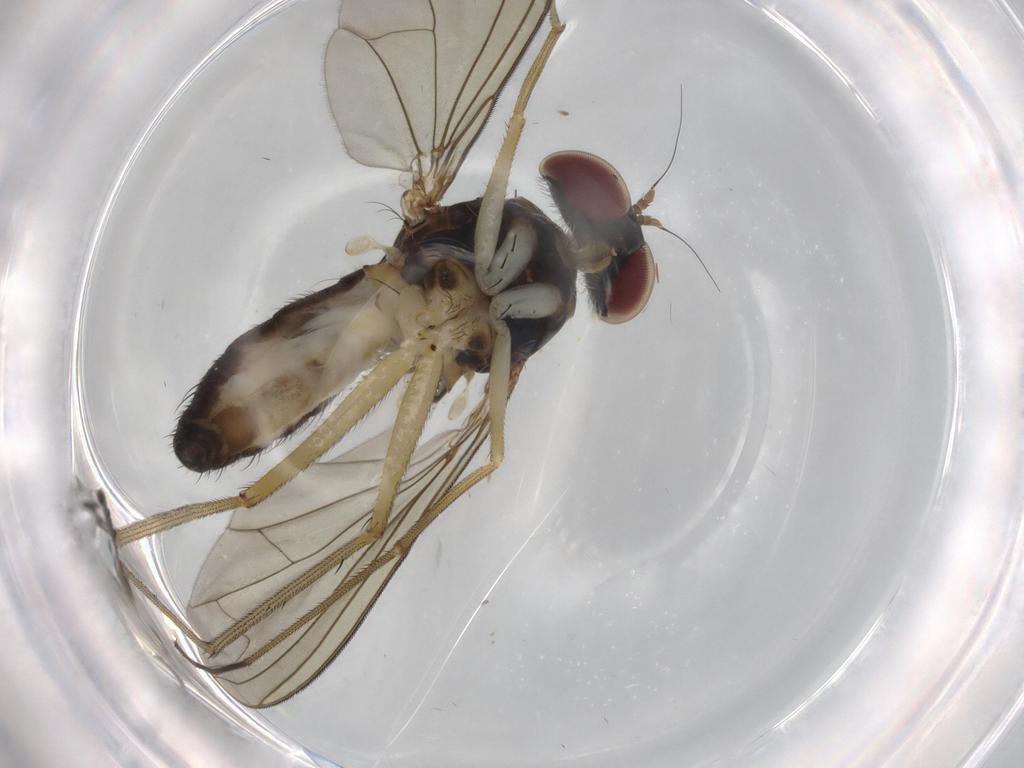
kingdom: Animalia
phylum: Arthropoda
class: Insecta
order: Diptera
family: Dolichopodidae
